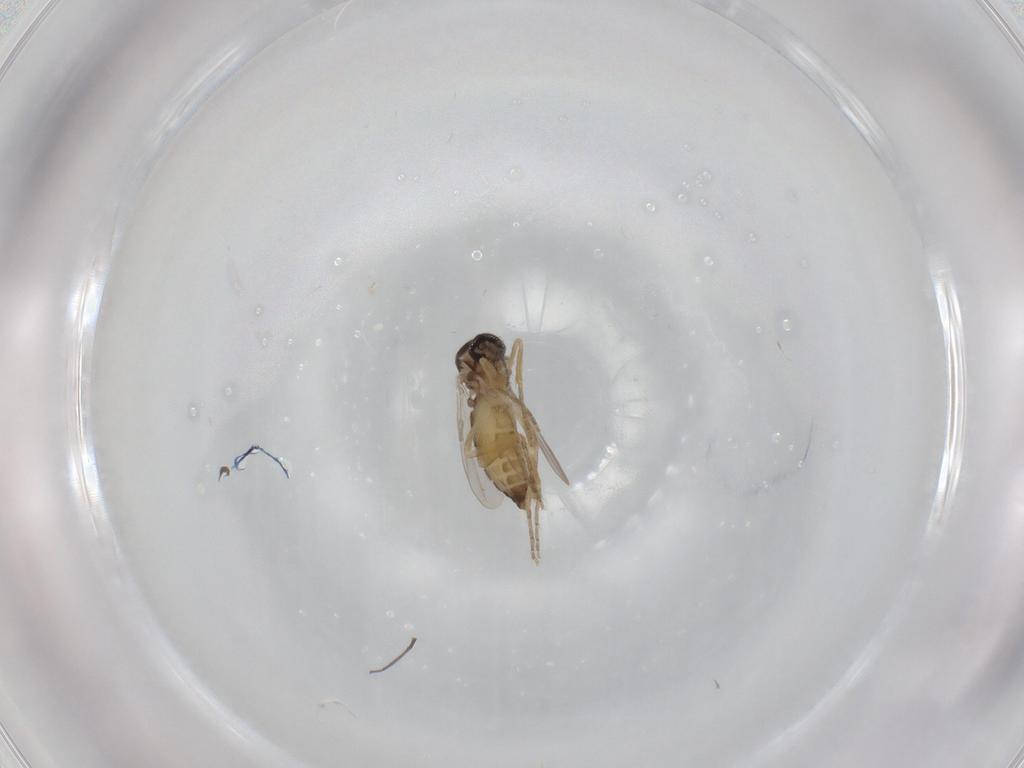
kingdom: Animalia
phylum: Arthropoda
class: Insecta
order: Diptera
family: Ceratopogonidae
